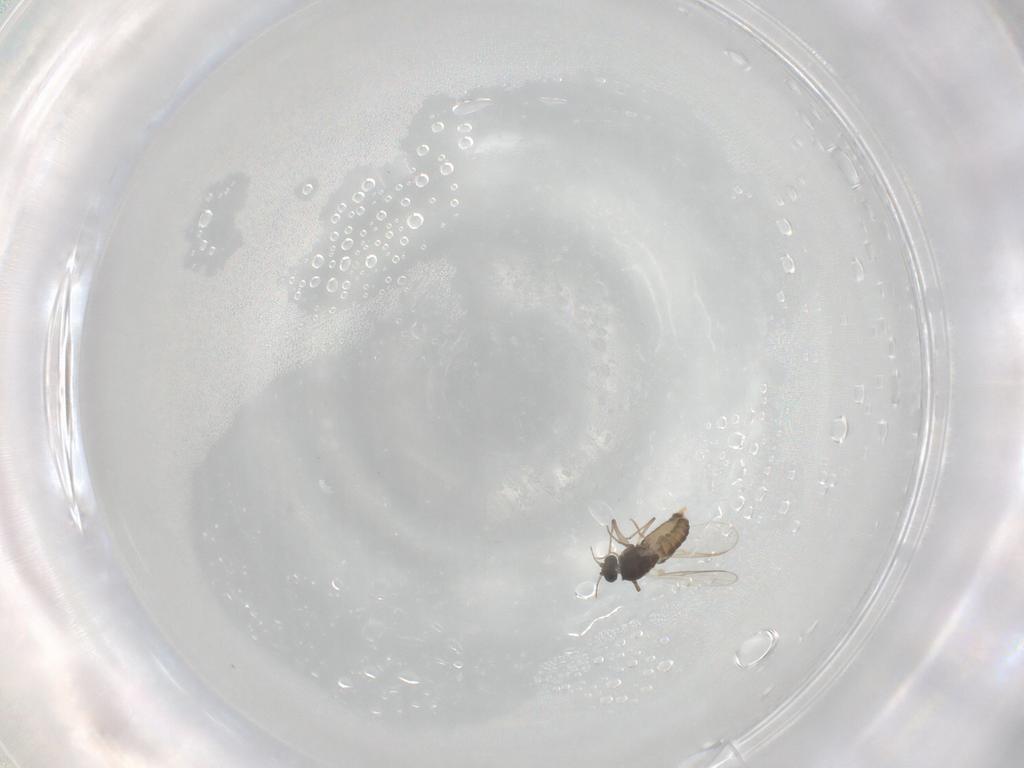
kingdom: Animalia
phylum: Arthropoda
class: Insecta
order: Diptera
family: Chironomidae
